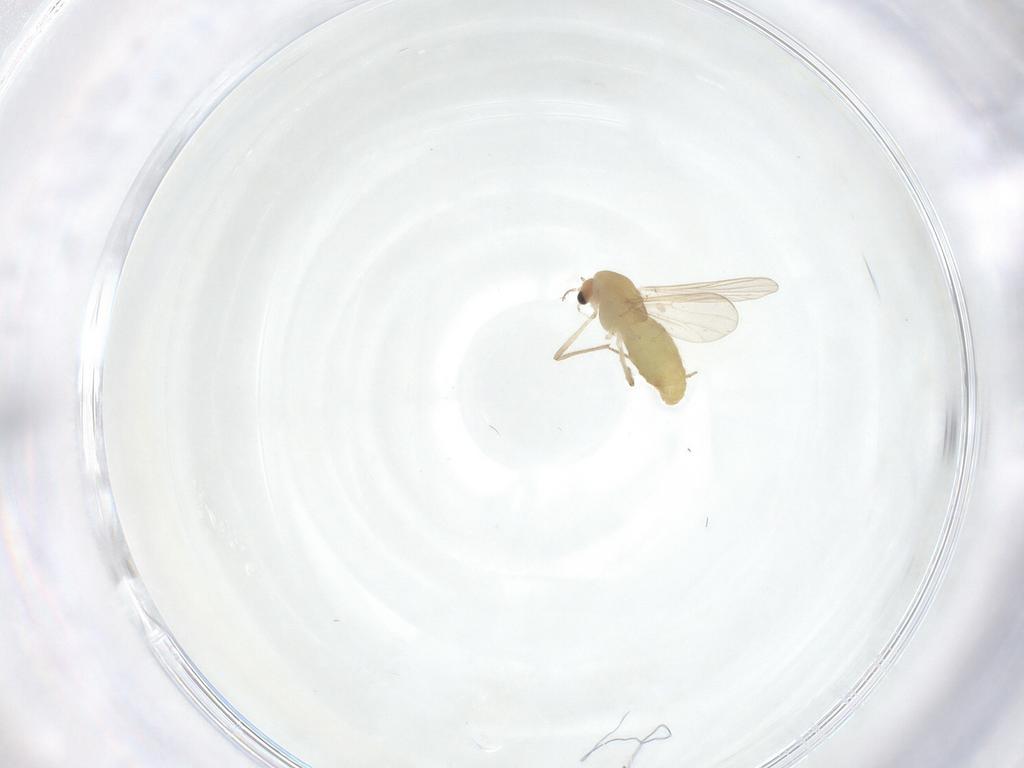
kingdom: Animalia
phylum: Arthropoda
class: Insecta
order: Diptera
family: Chironomidae
